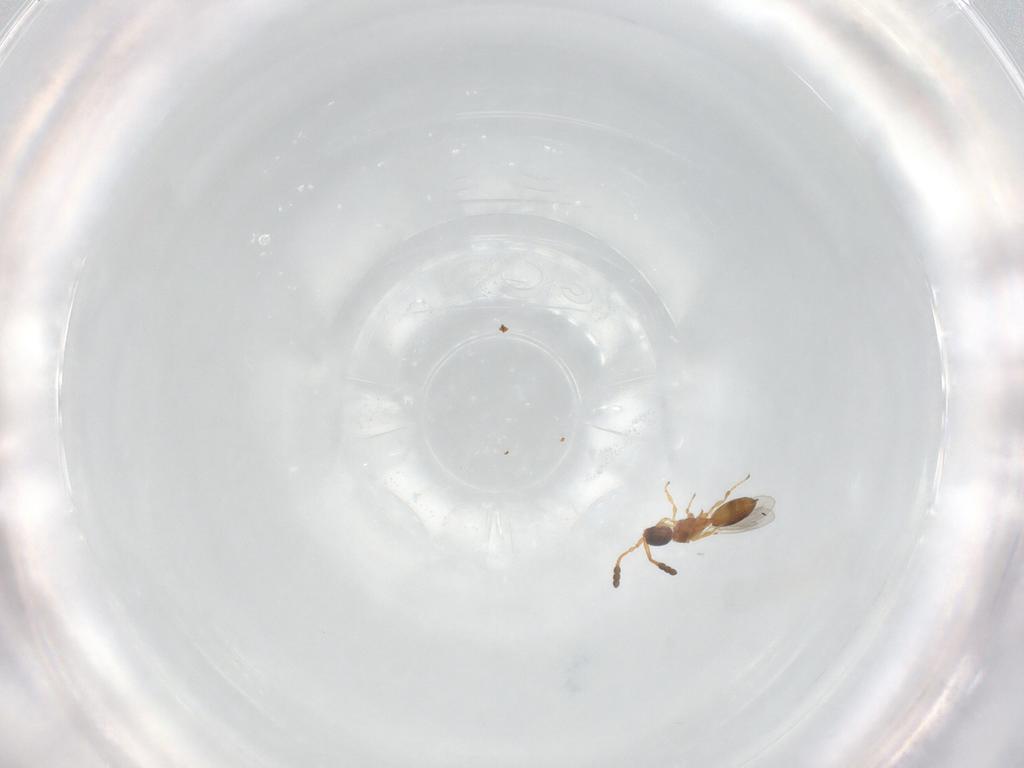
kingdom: Animalia
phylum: Arthropoda
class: Insecta
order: Hymenoptera
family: Diapriidae
